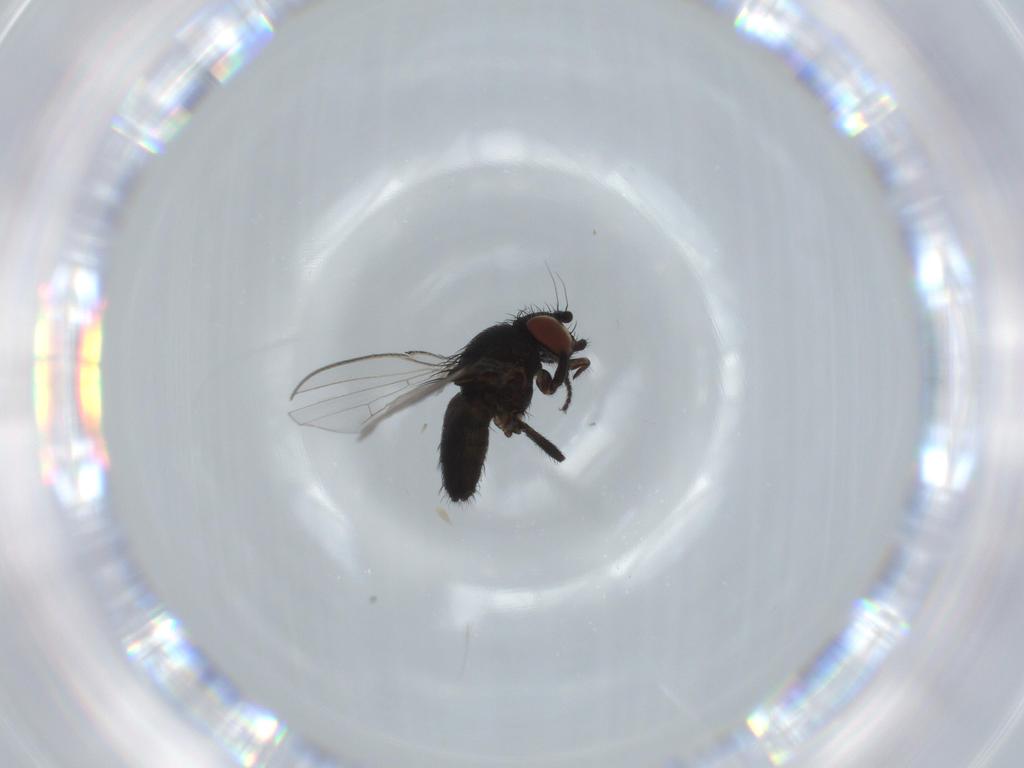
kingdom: Animalia
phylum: Arthropoda
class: Insecta
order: Diptera
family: Milichiidae
